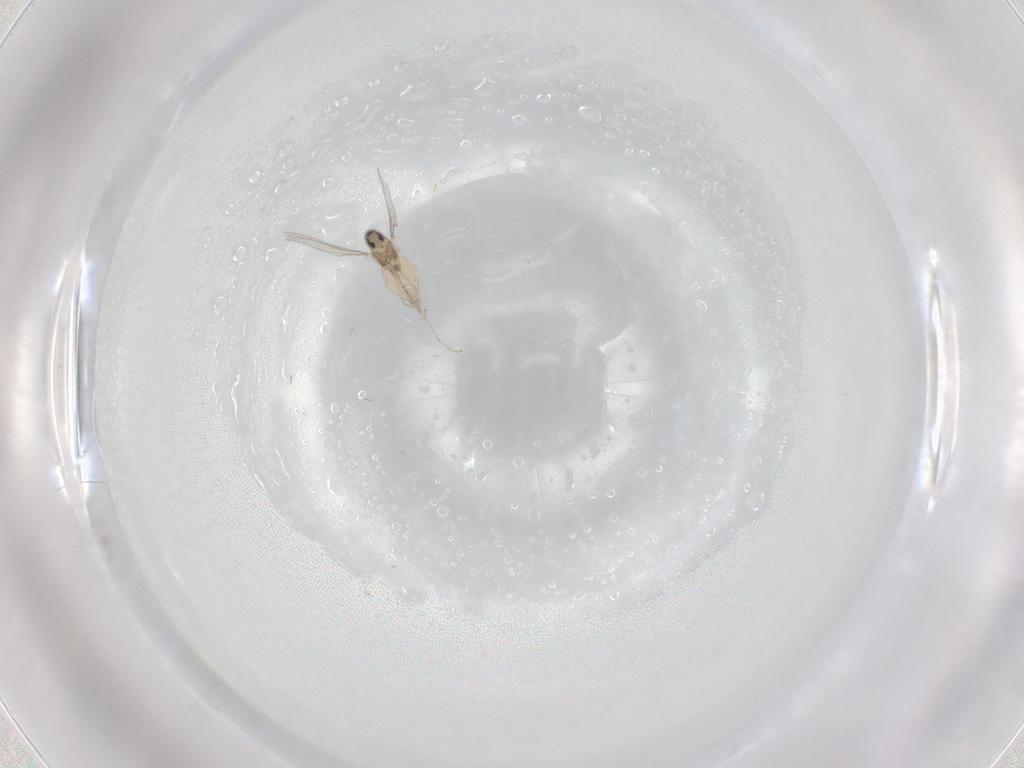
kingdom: Animalia
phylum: Arthropoda
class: Insecta
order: Diptera
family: Cecidomyiidae
